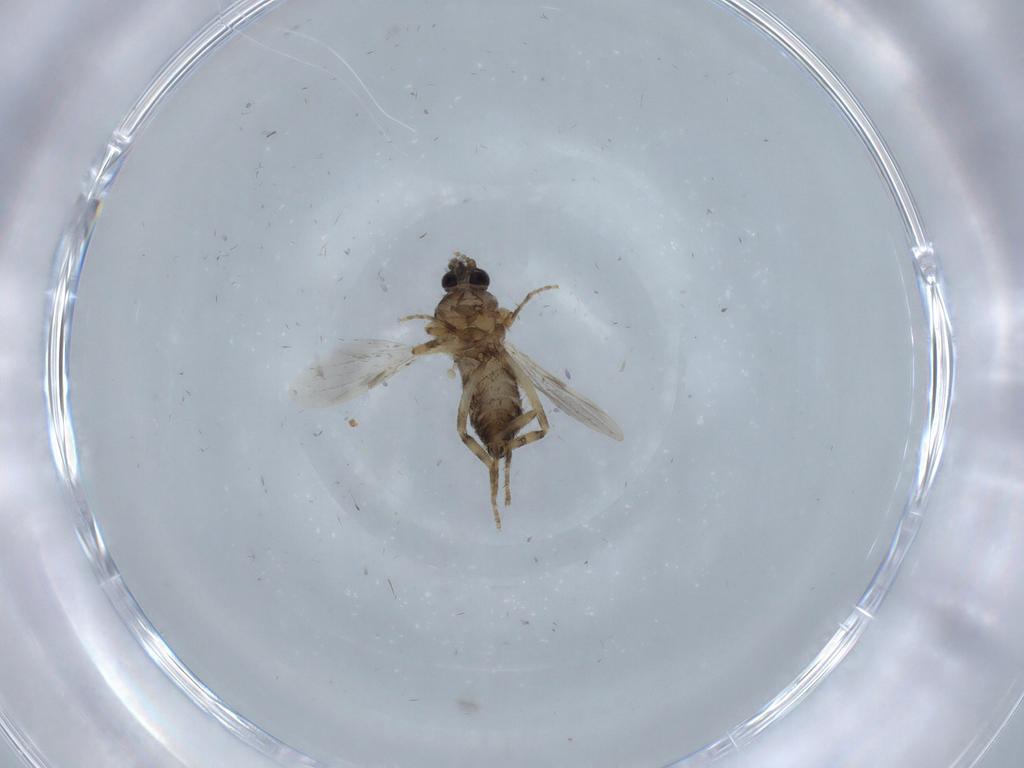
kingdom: Animalia
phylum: Arthropoda
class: Insecta
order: Diptera
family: Ceratopogonidae
